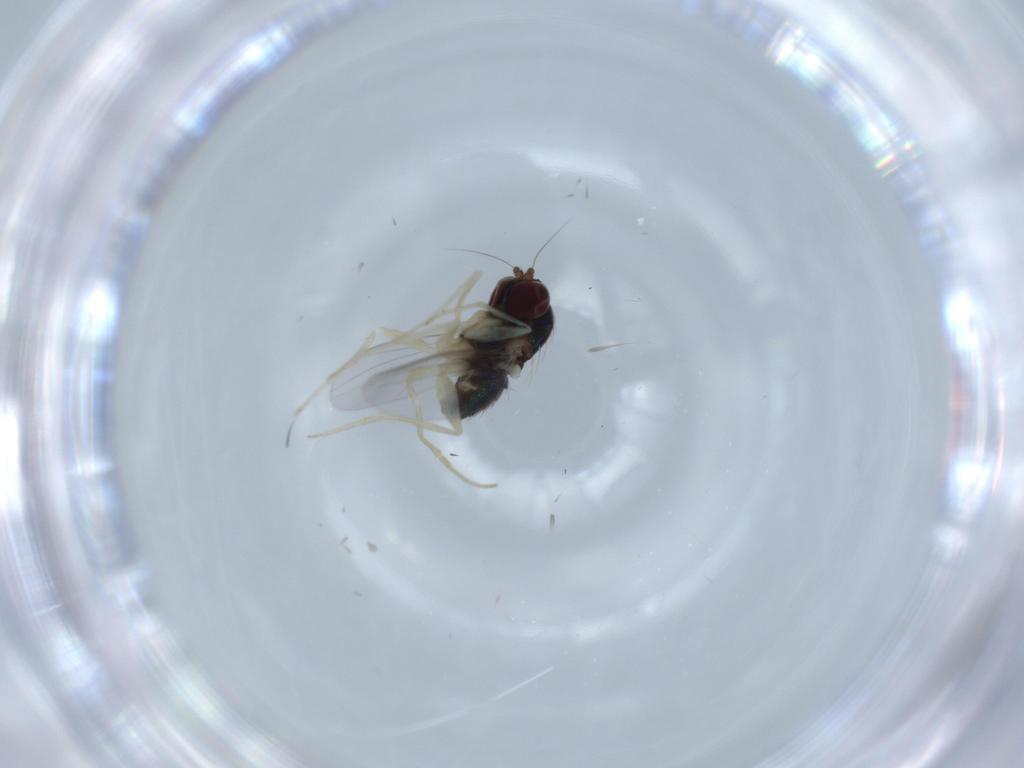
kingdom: Animalia
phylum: Arthropoda
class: Insecta
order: Diptera
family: Dolichopodidae
